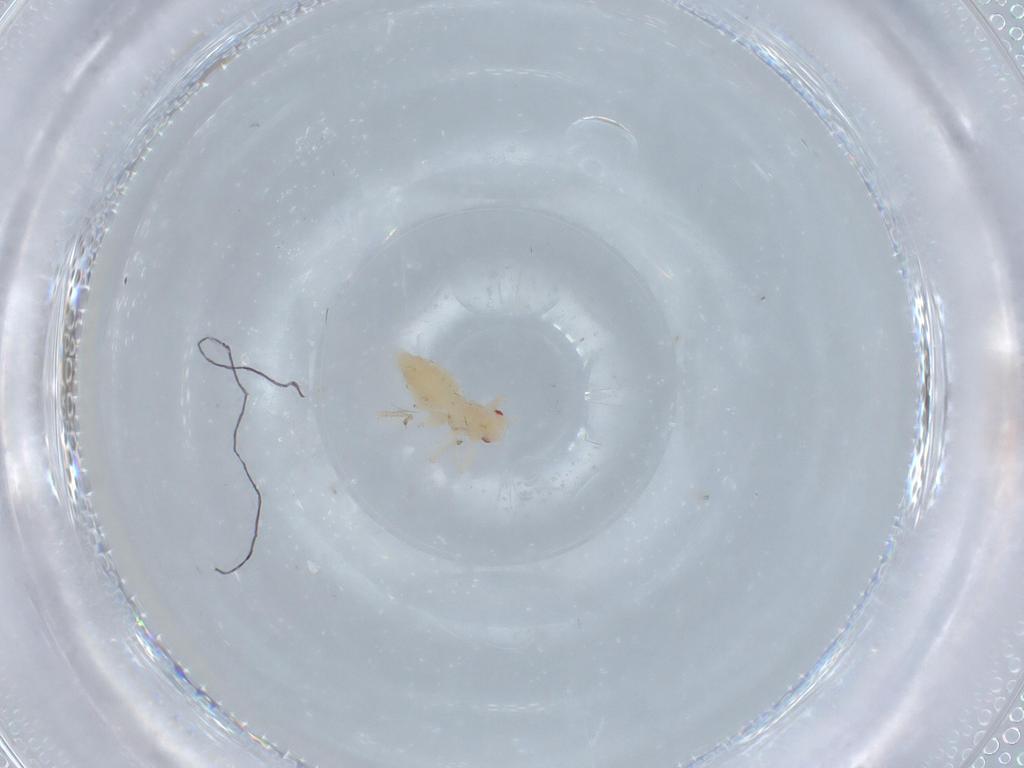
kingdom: Animalia
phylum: Arthropoda
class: Insecta
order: Hemiptera
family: Aphididae
